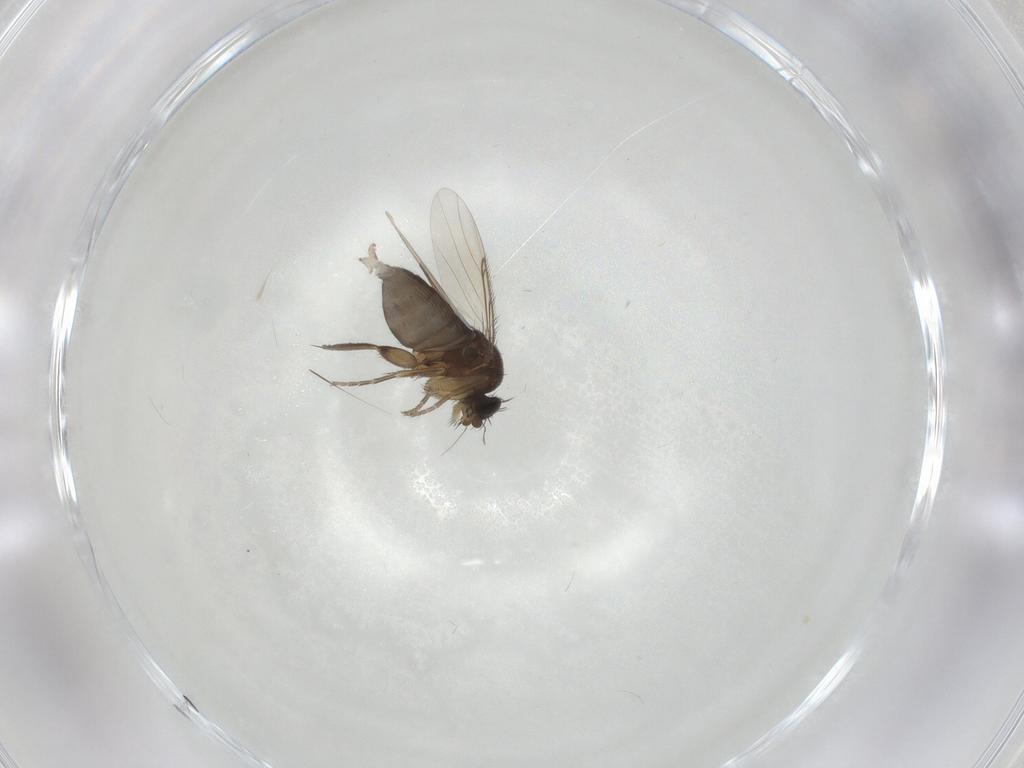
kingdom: Animalia
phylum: Arthropoda
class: Insecta
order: Diptera
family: Phoridae
